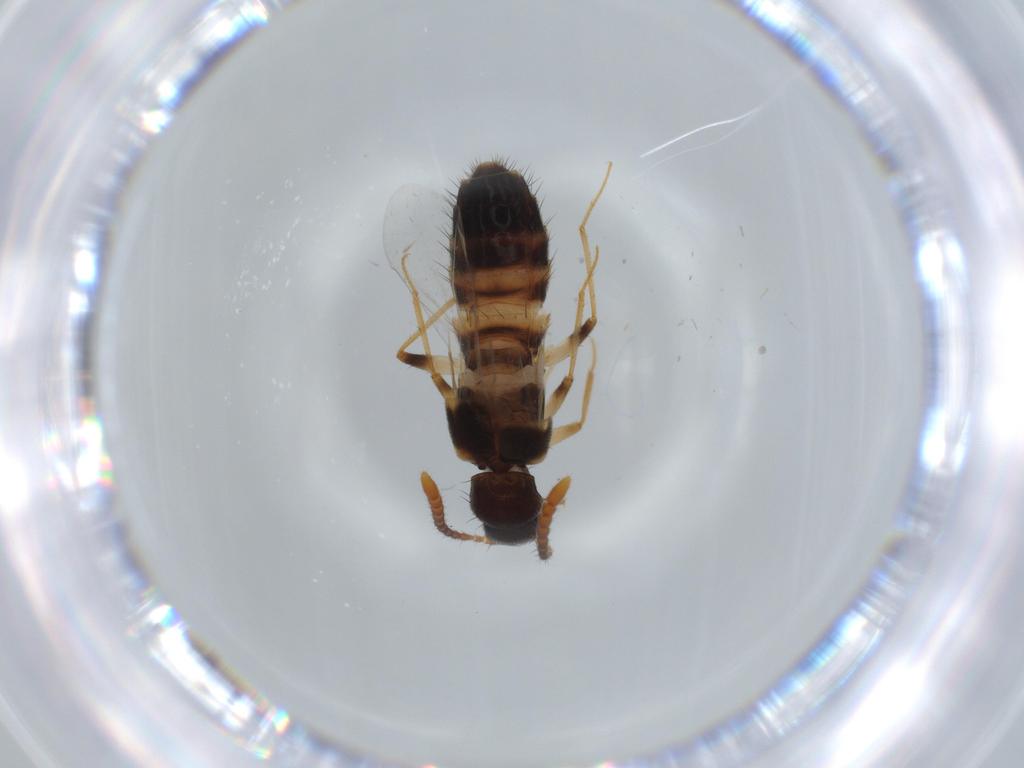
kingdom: Animalia
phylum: Arthropoda
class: Insecta
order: Coleoptera
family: Staphylinidae
